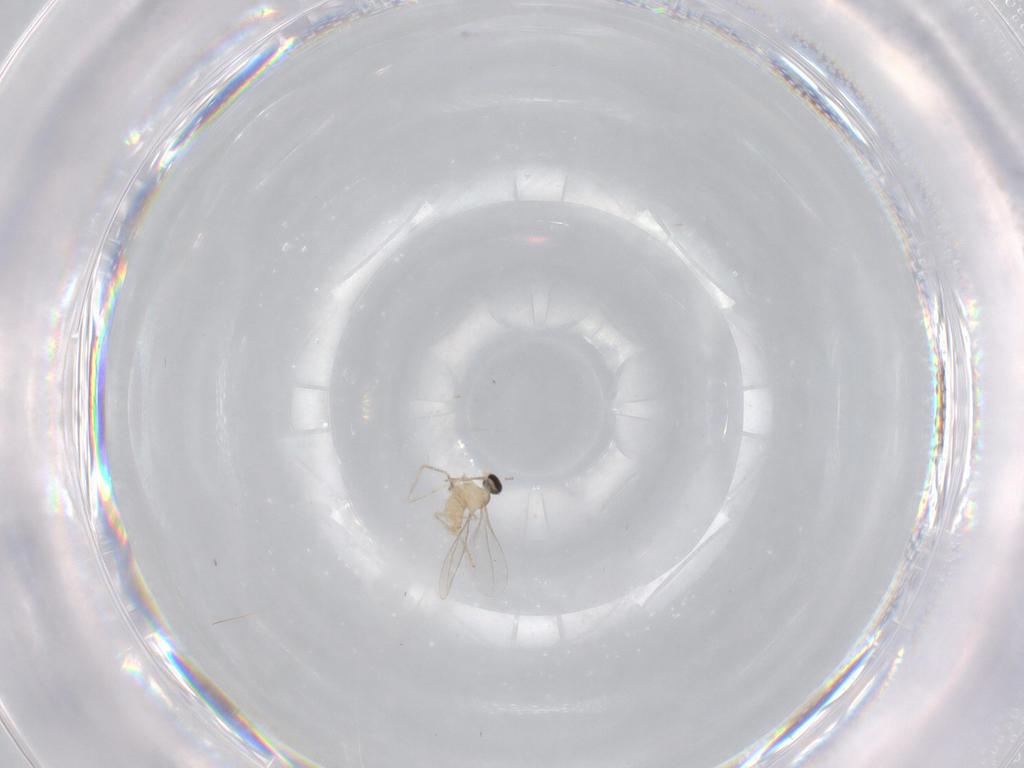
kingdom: Animalia
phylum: Arthropoda
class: Insecta
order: Diptera
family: Cecidomyiidae
